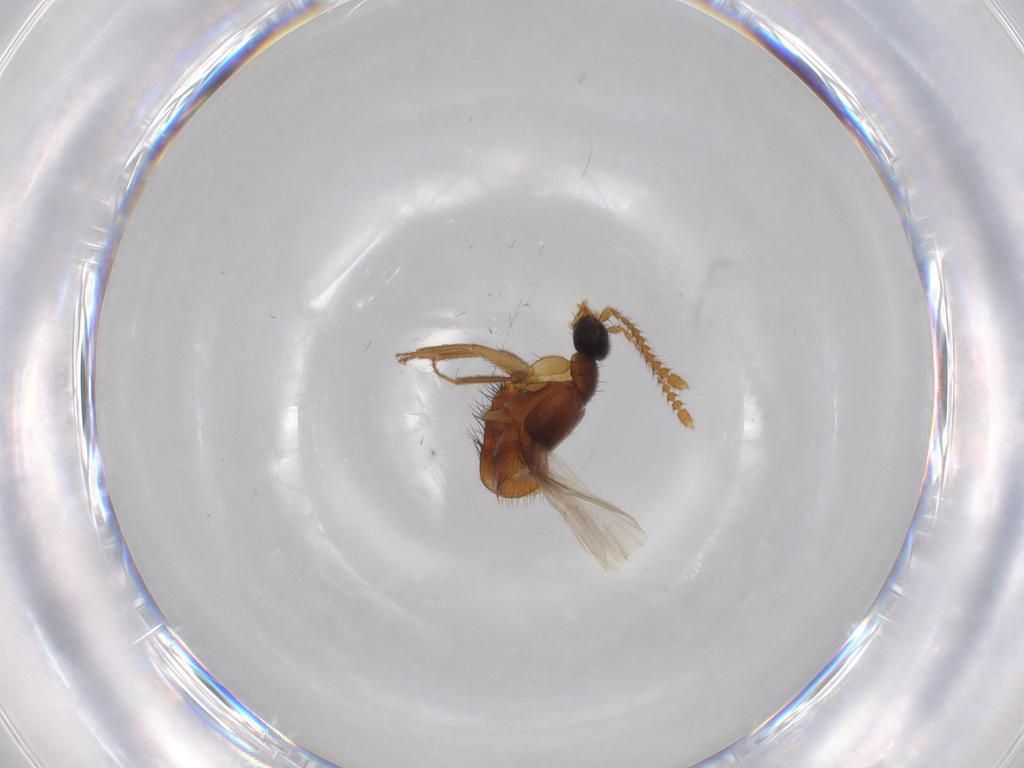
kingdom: Animalia
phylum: Arthropoda
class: Insecta
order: Coleoptera
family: Staphylinidae
